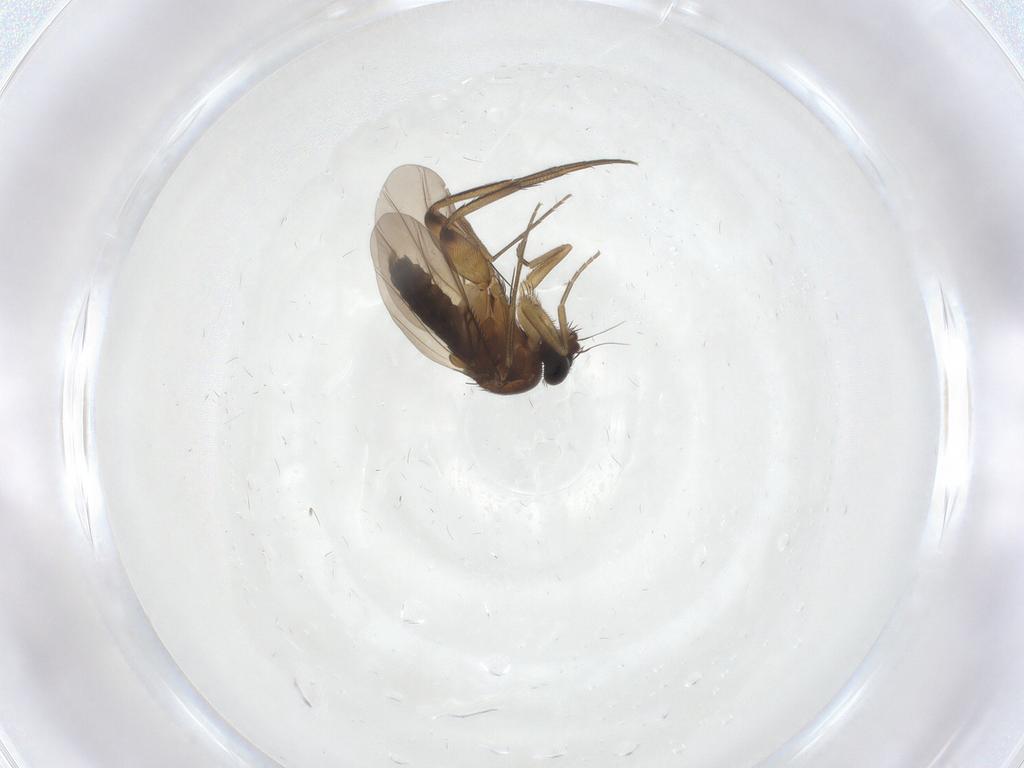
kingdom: Animalia
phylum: Arthropoda
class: Insecta
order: Diptera
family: Phoridae
